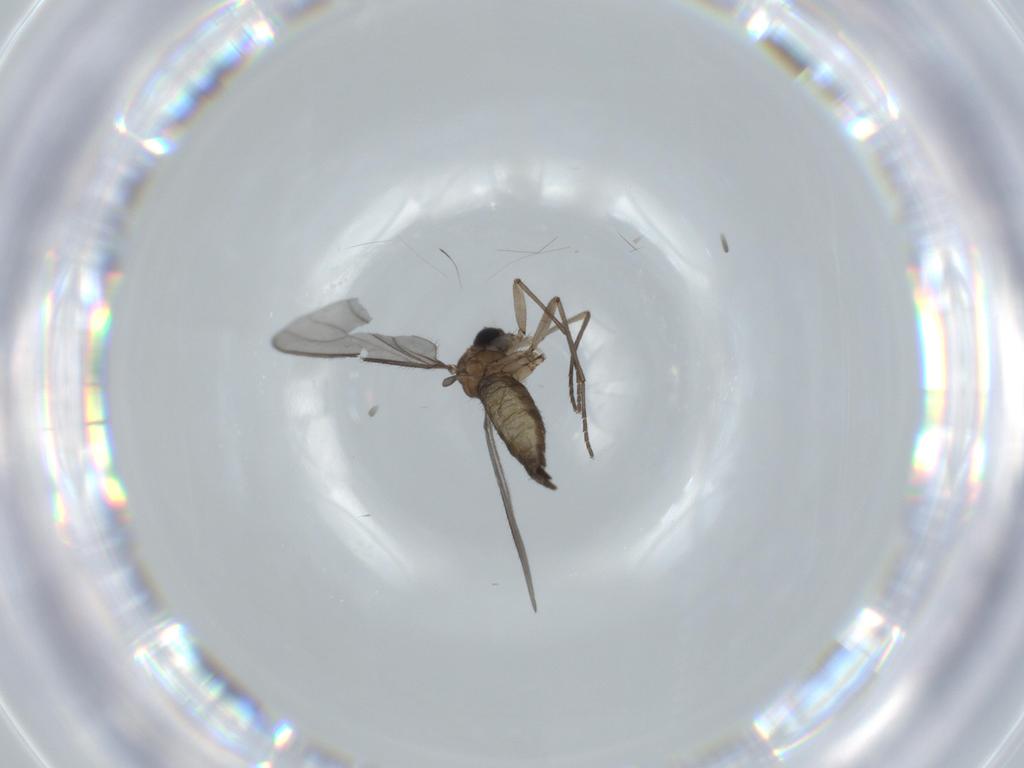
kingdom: Animalia
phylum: Arthropoda
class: Insecta
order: Diptera
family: Sciaridae
